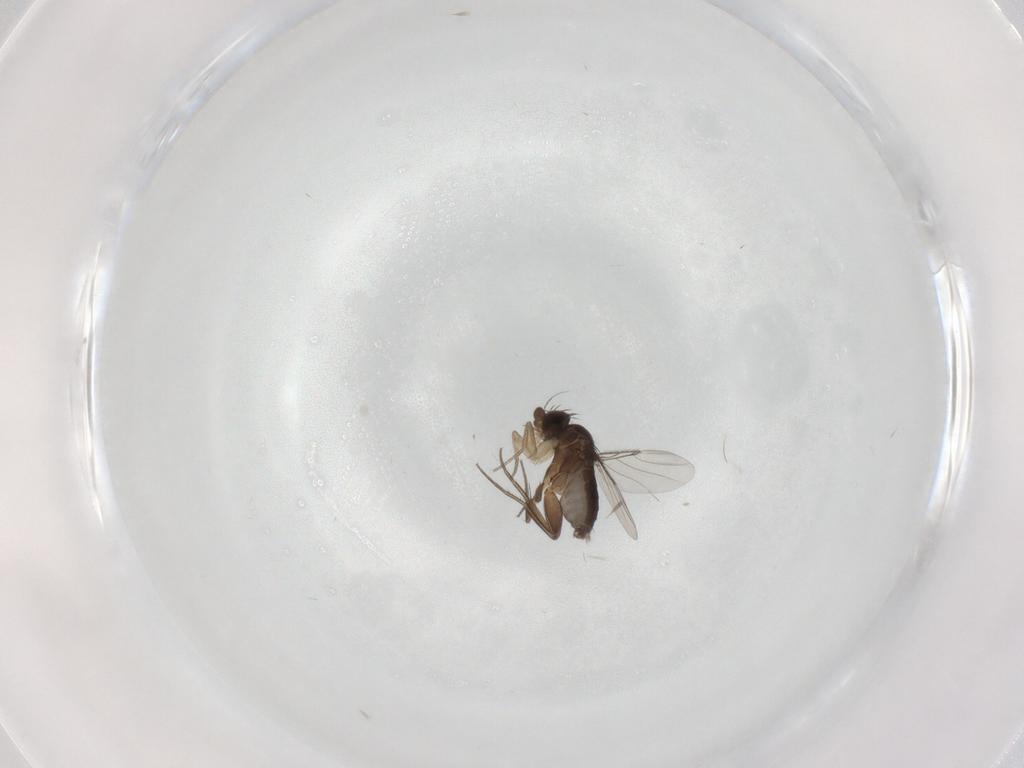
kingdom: Animalia
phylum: Arthropoda
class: Insecta
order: Diptera
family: Phoridae
